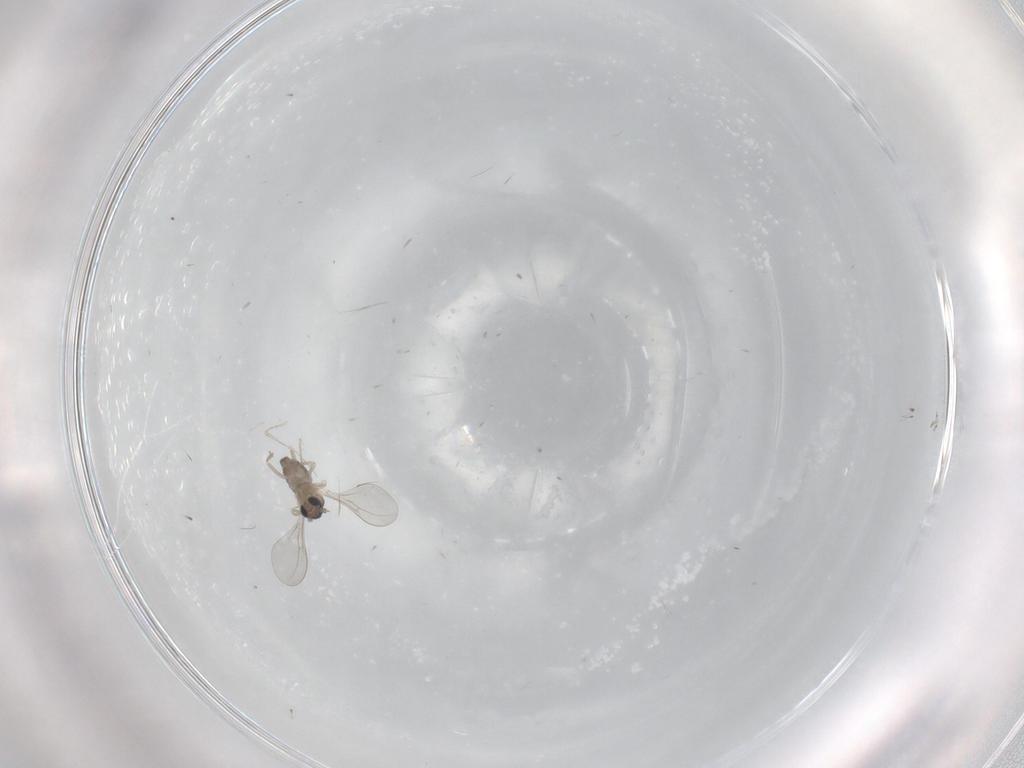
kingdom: Animalia
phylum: Arthropoda
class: Insecta
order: Diptera
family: Cecidomyiidae
